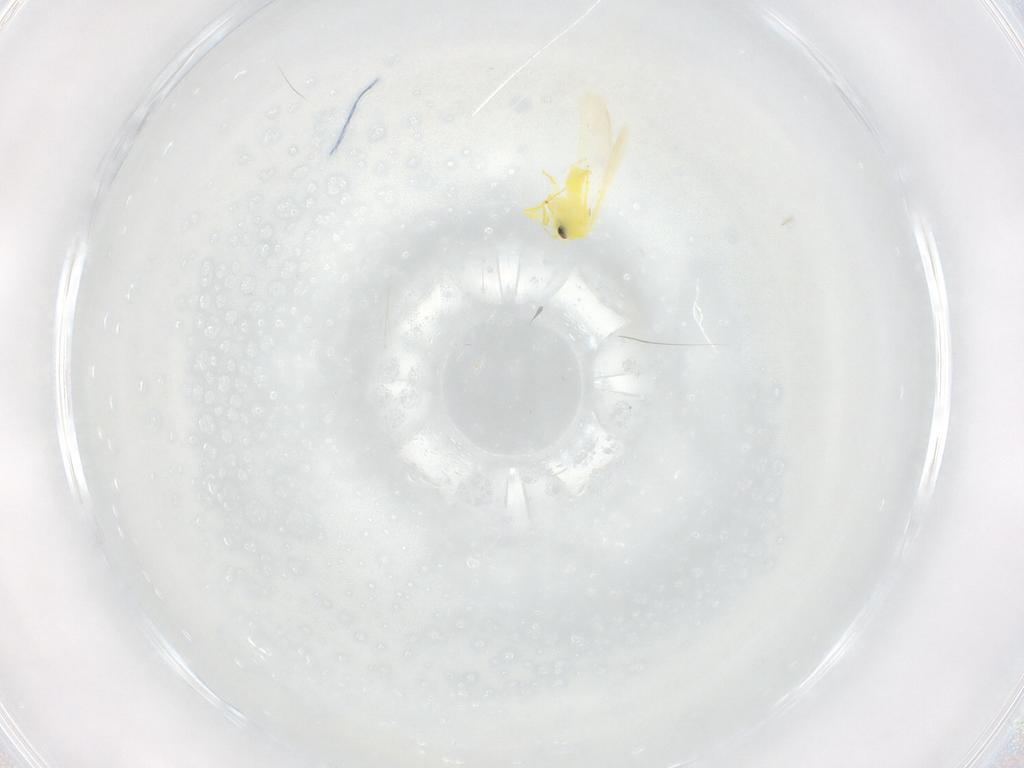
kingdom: Animalia
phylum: Arthropoda
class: Insecta
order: Hemiptera
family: Aleyrodidae
